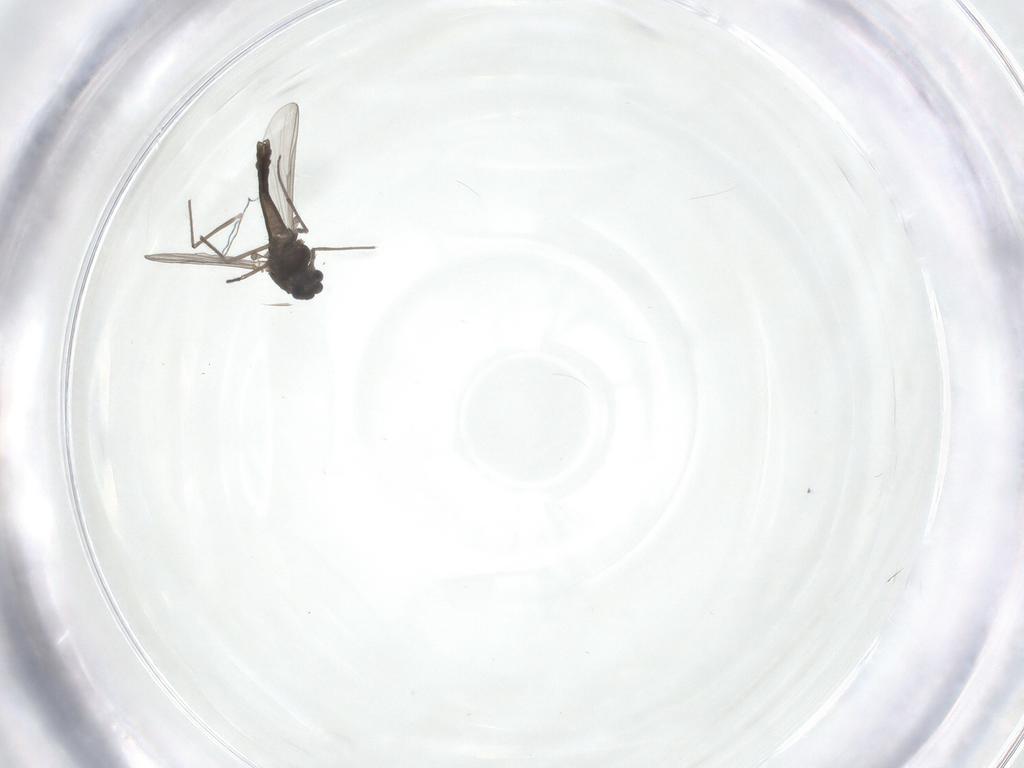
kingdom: Animalia
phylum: Arthropoda
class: Insecta
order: Diptera
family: Chironomidae
